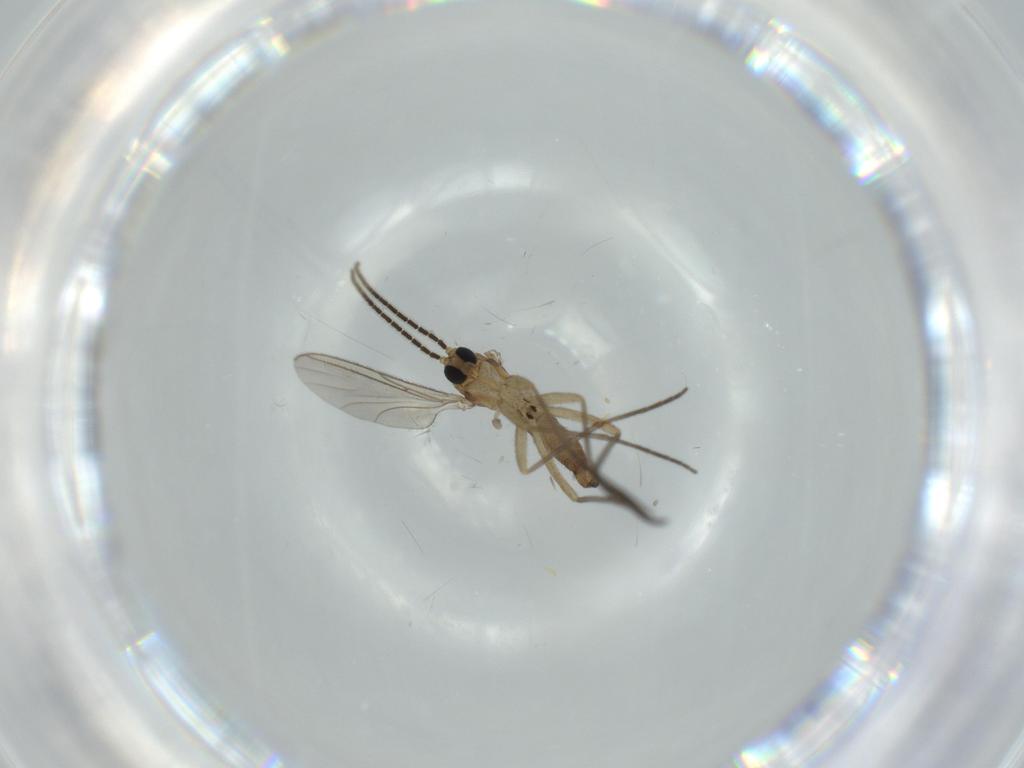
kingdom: Animalia
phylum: Arthropoda
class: Insecta
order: Diptera
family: Sciaridae
